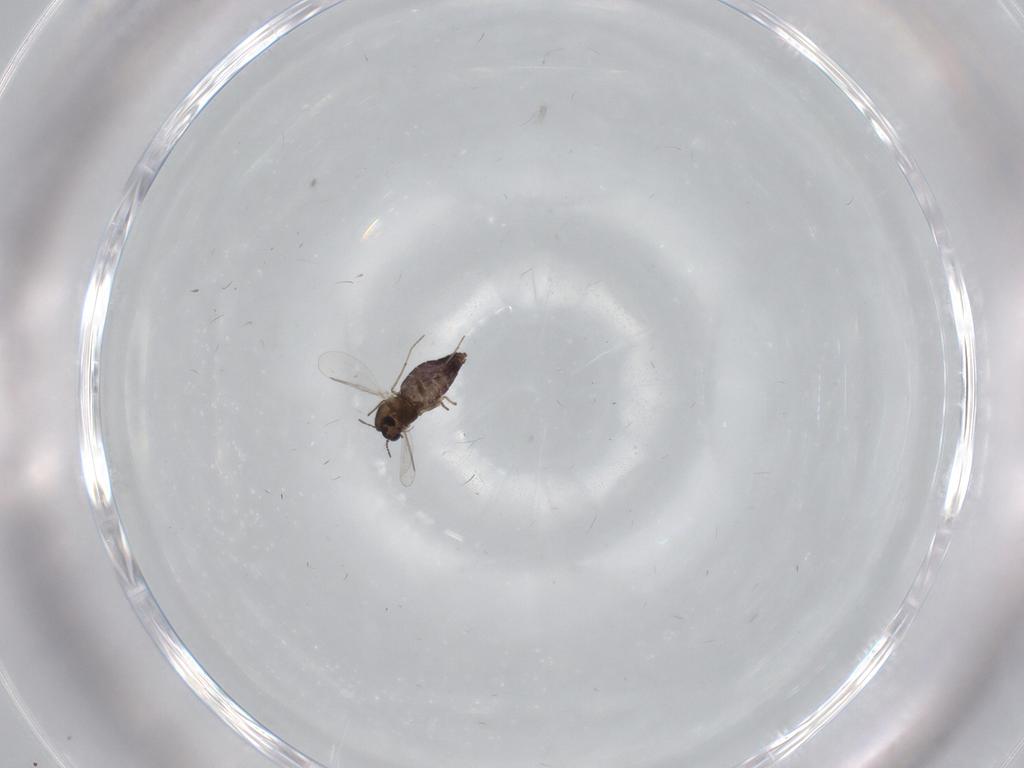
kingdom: Animalia
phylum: Arthropoda
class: Insecta
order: Diptera
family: Chironomidae
